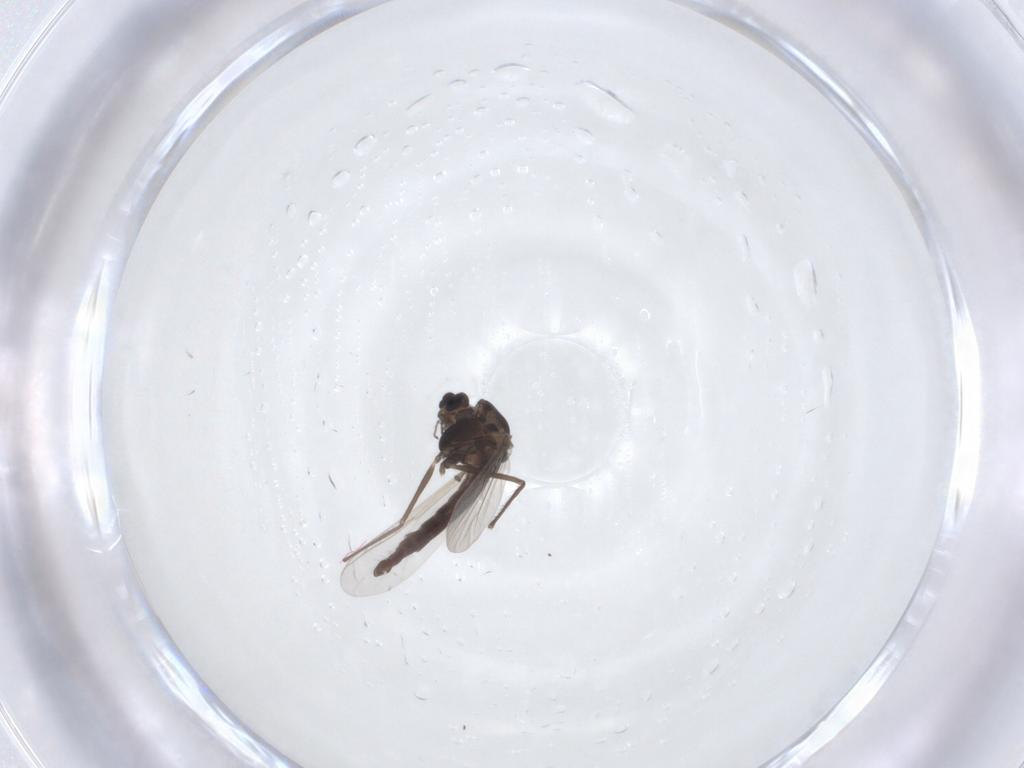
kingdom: Animalia
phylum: Arthropoda
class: Insecta
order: Diptera
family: Chironomidae
